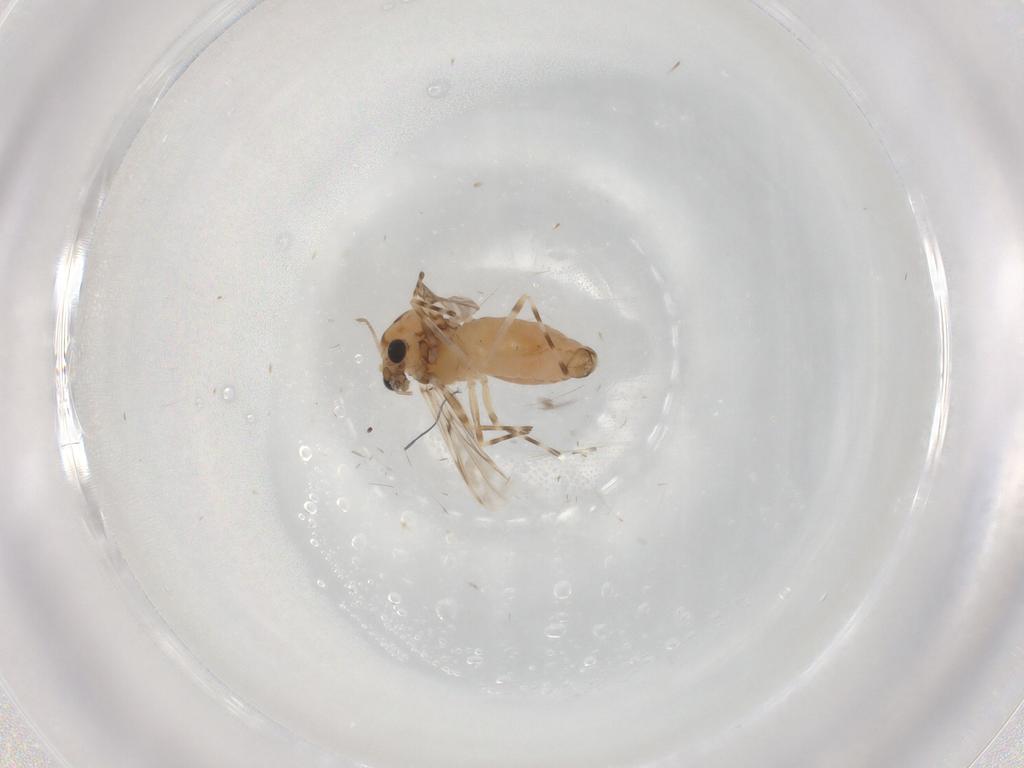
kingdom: Animalia
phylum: Arthropoda
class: Insecta
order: Diptera
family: Chironomidae
